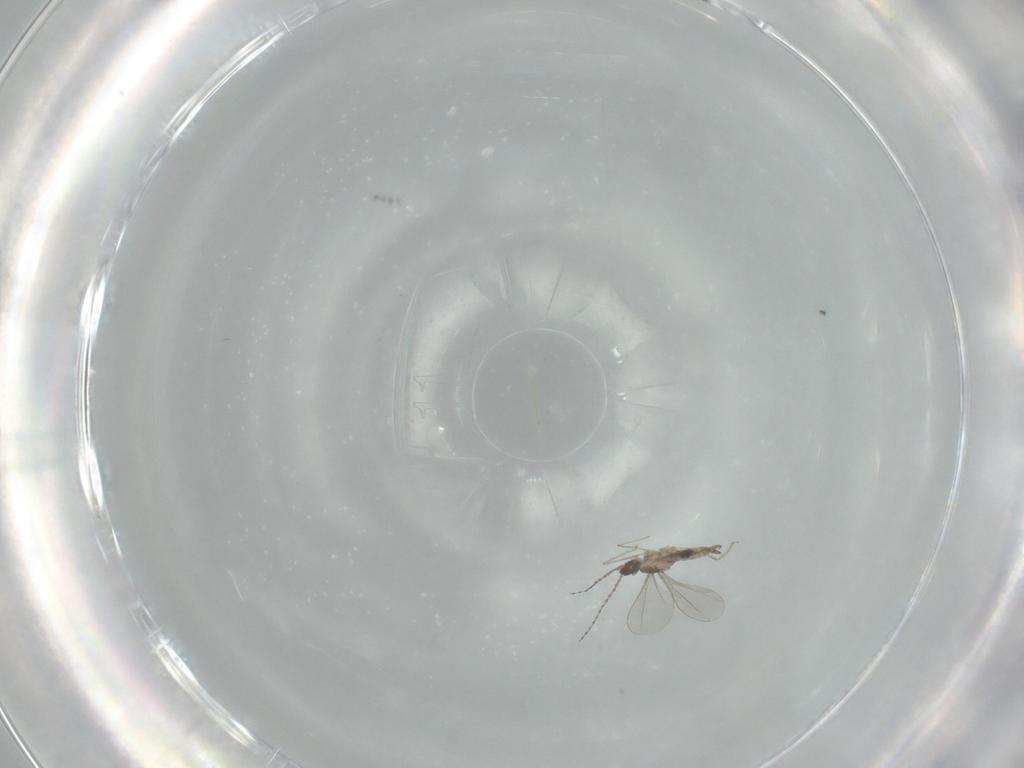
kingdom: Animalia
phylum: Arthropoda
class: Insecta
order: Diptera
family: Cecidomyiidae
